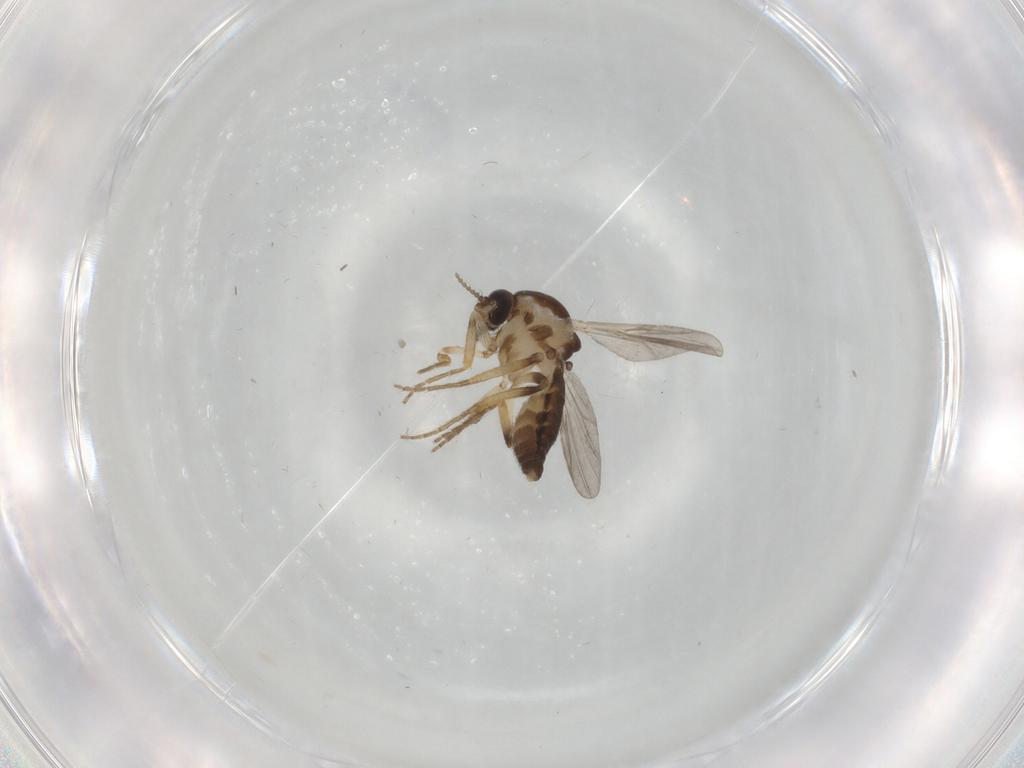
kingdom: Animalia
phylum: Arthropoda
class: Insecta
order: Diptera
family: Ceratopogonidae
